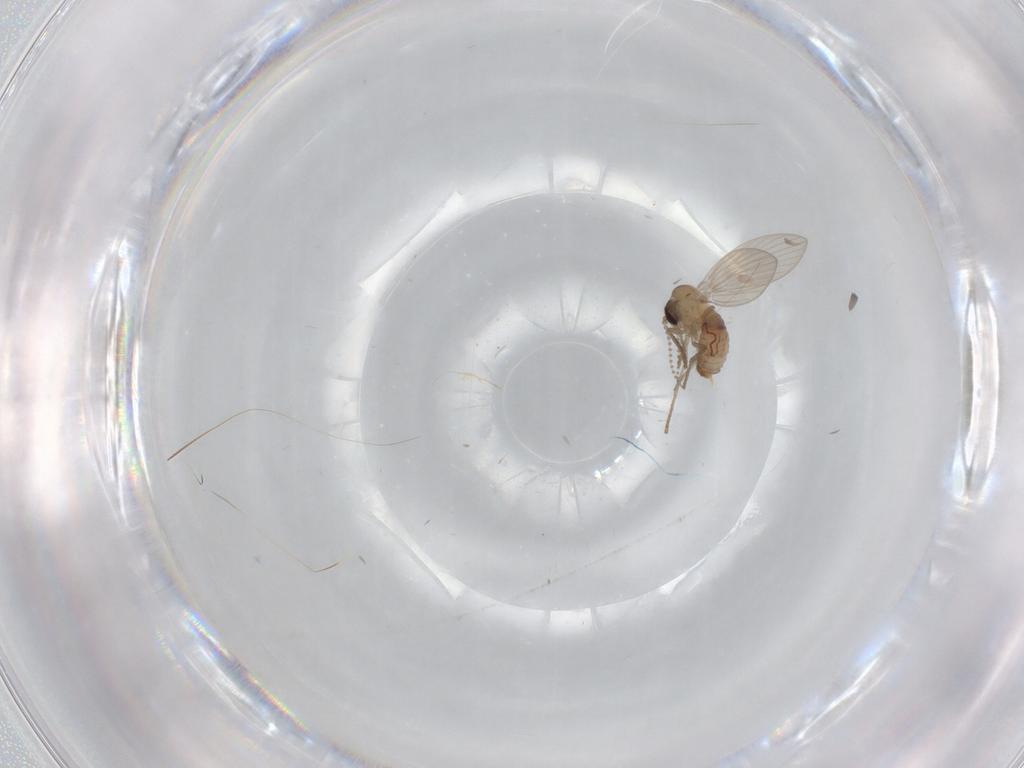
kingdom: Animalia
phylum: Arthropoda
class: Insecta
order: Diptera
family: Psychodidae
